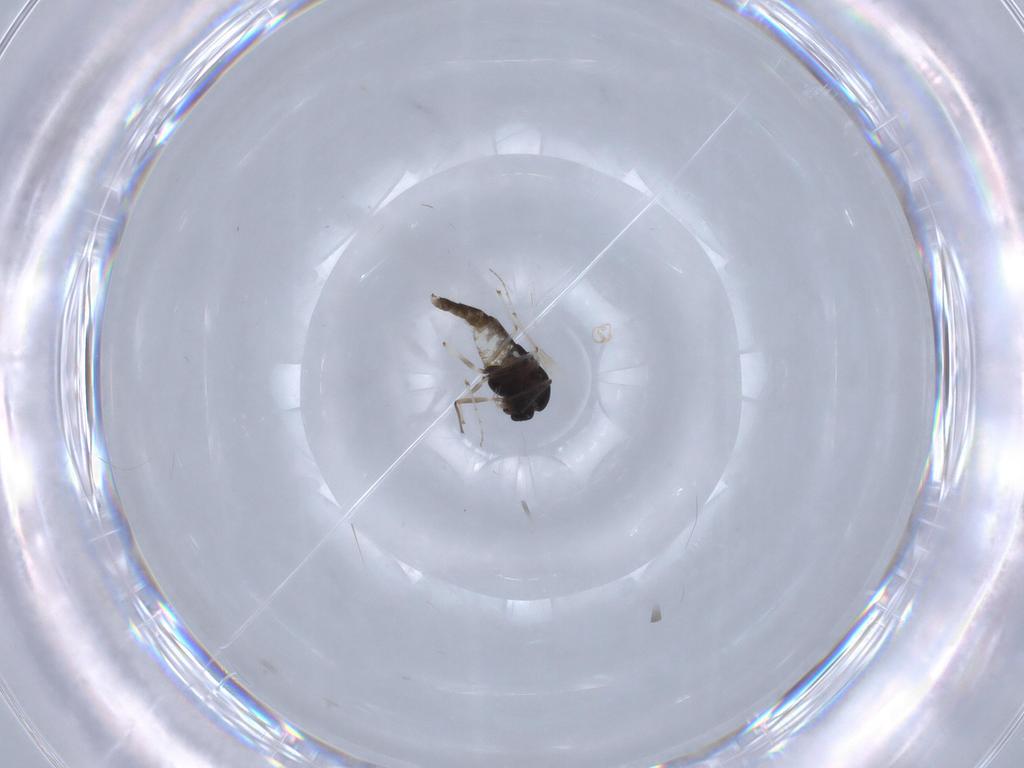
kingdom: Animalia
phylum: Arthropoda
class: Insecta
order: Diptera
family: Chironomidae
